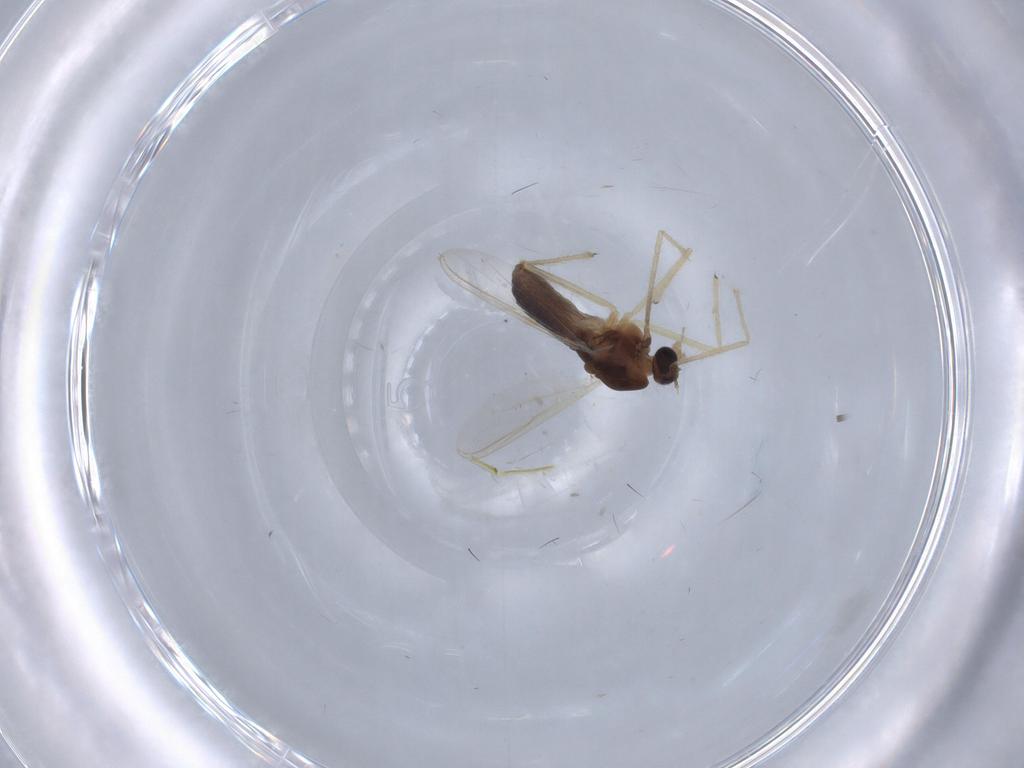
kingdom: Animalia
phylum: Arthropoda
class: Insecta
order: Diptera
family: Chironomidae
